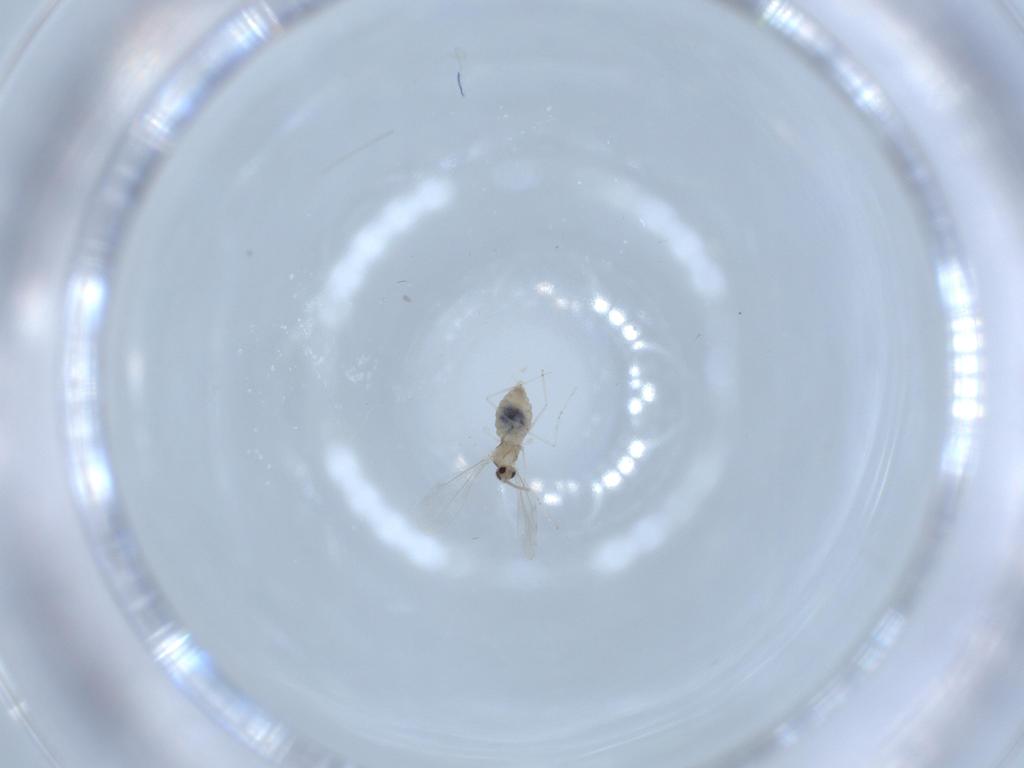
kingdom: Animalia
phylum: Arthropoda
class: Insecta
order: Diptera
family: Cecidomyiidae
